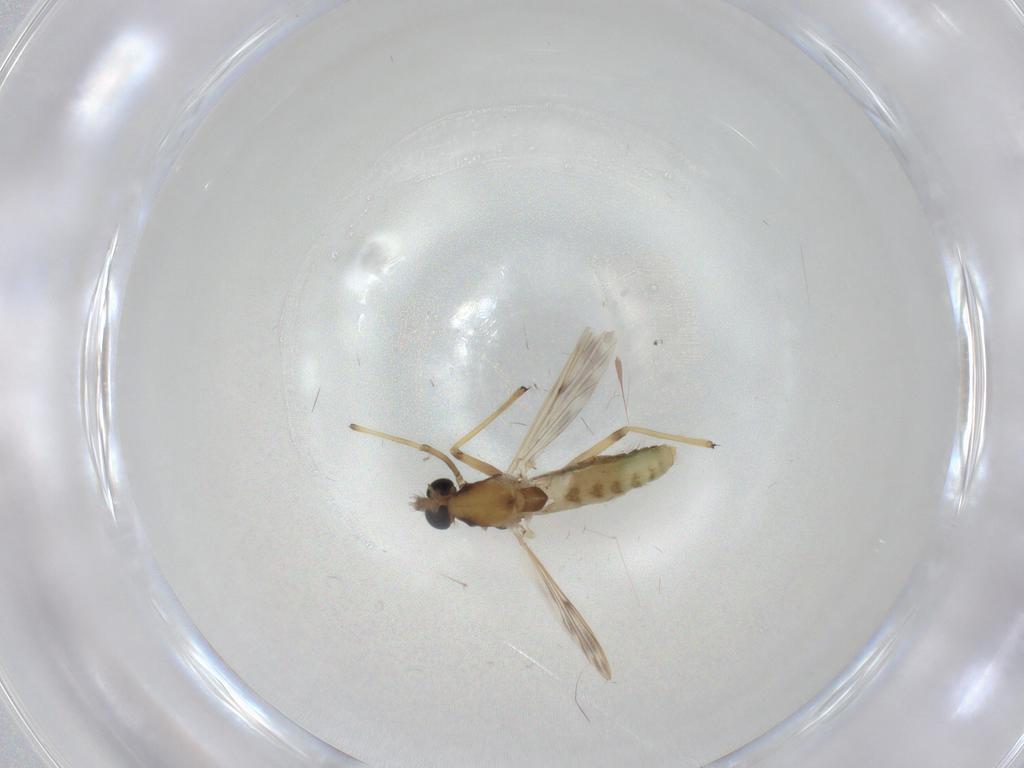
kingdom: Animalia
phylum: Arthropoda
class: Insecta
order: Diptera
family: Chironomidae
